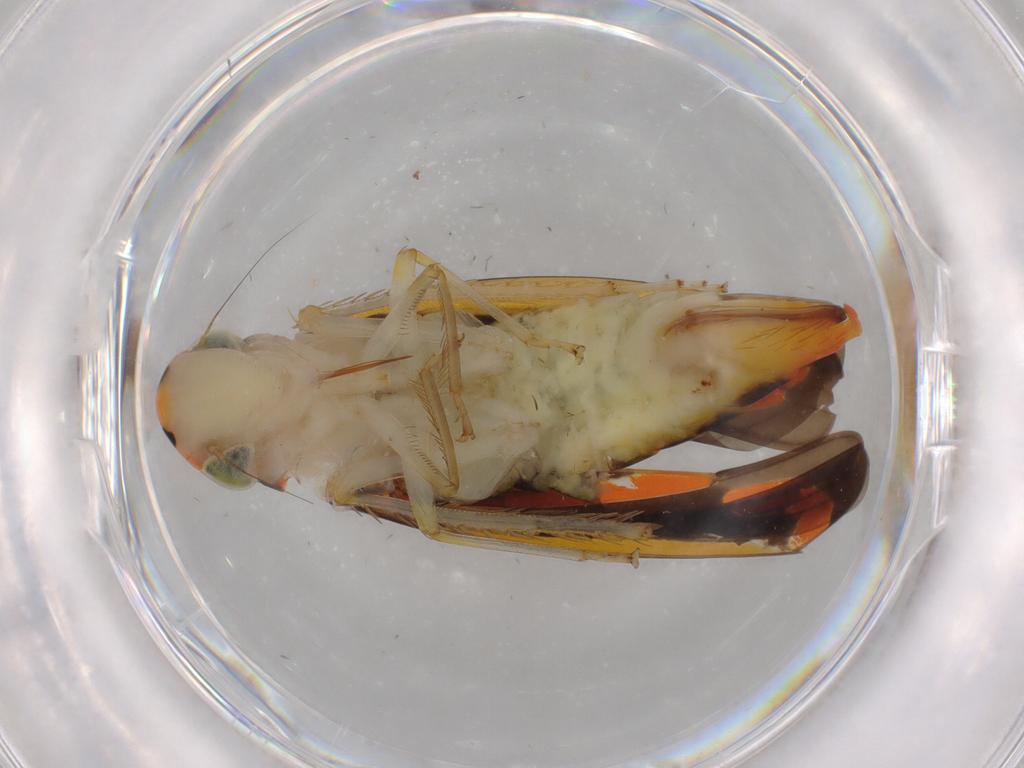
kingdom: Animalia
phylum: Arthropoda
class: Insecta
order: Hemiptera
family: Cicadellidae
